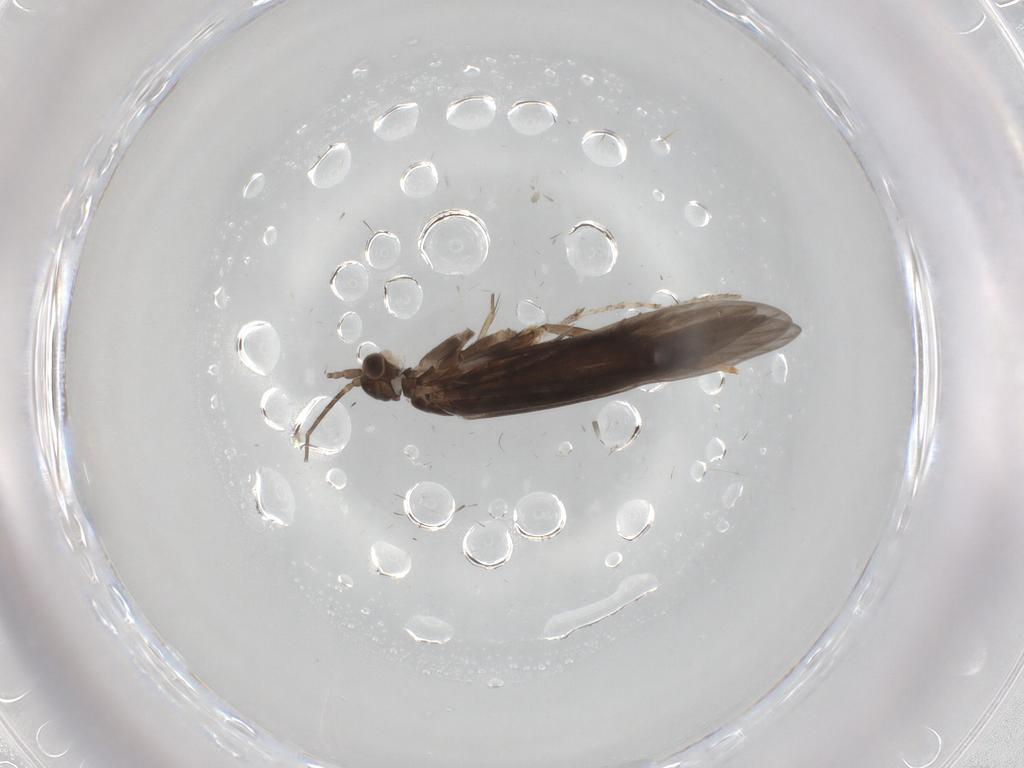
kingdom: Animalia
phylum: Arthropoda
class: Insecta
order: Trichoptera
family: Xiphocentronidae
